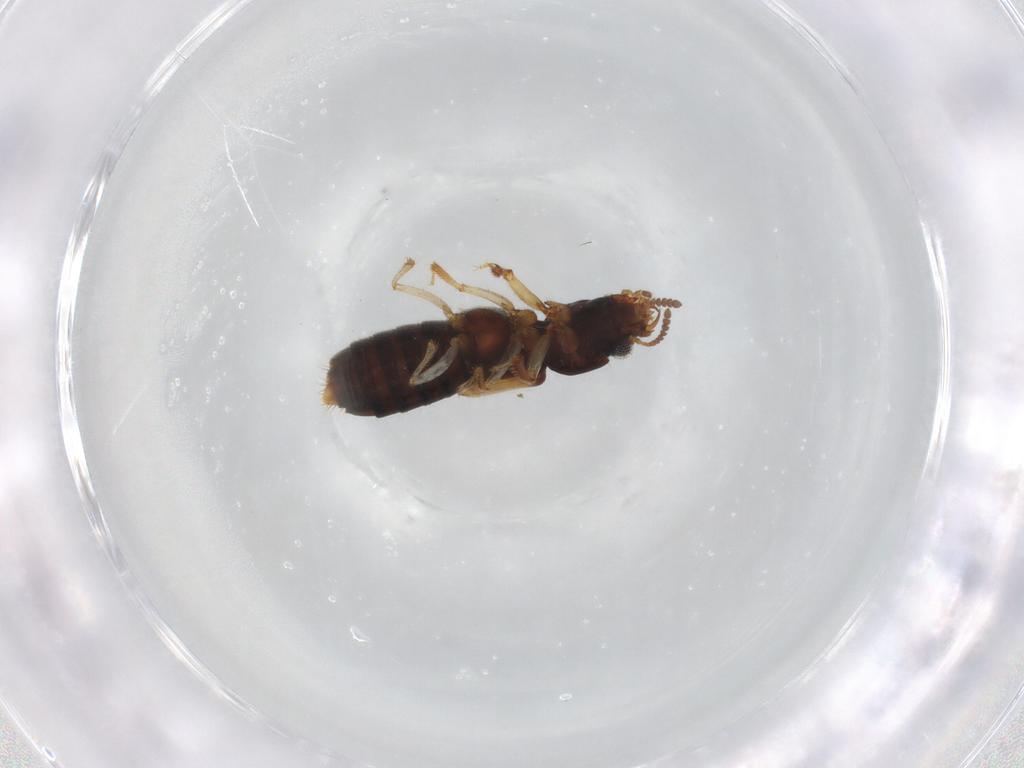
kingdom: Animalia
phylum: Arthropoda
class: Insecta
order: Coleoptera
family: Staphylinidae
